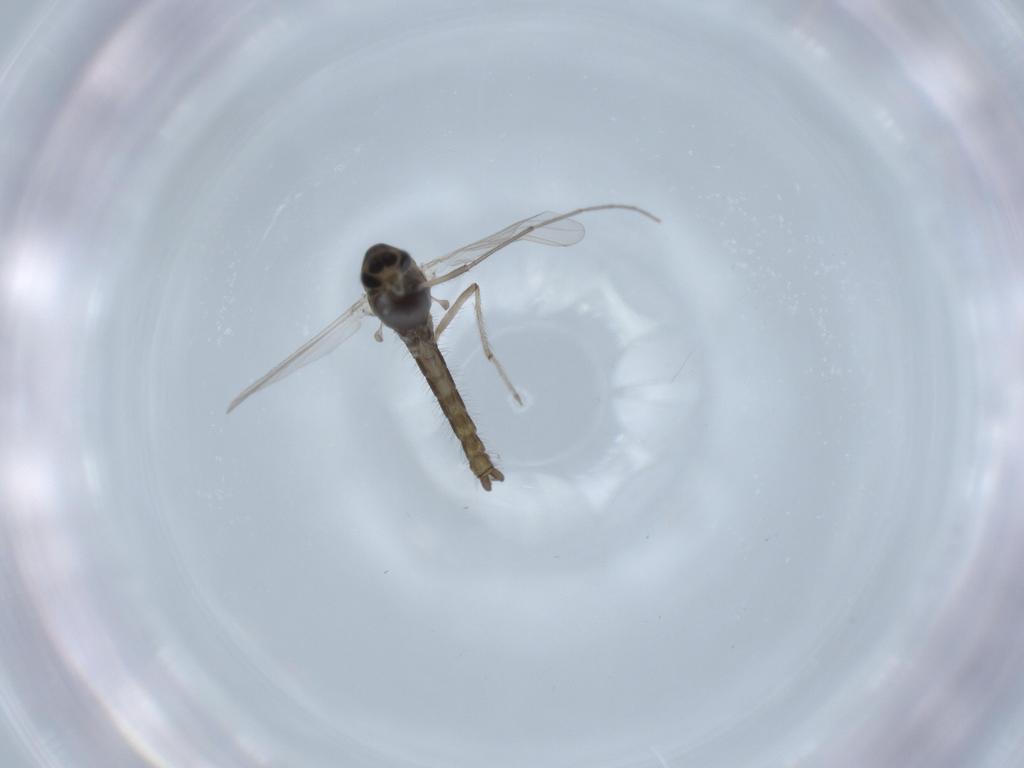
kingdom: Animalia
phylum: Arthropoda
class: Insecta
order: Diptera
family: Chironomidae
